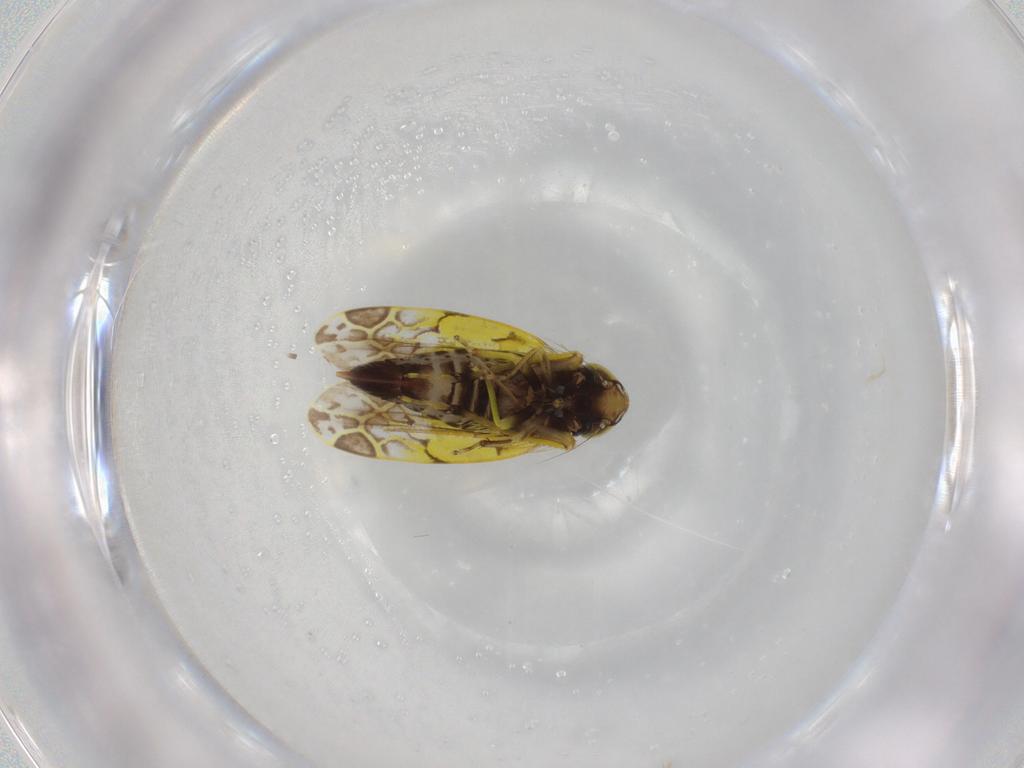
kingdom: Animalia
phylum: Arthropoda
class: Insecta
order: Hemiptera
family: Cicadellidae
